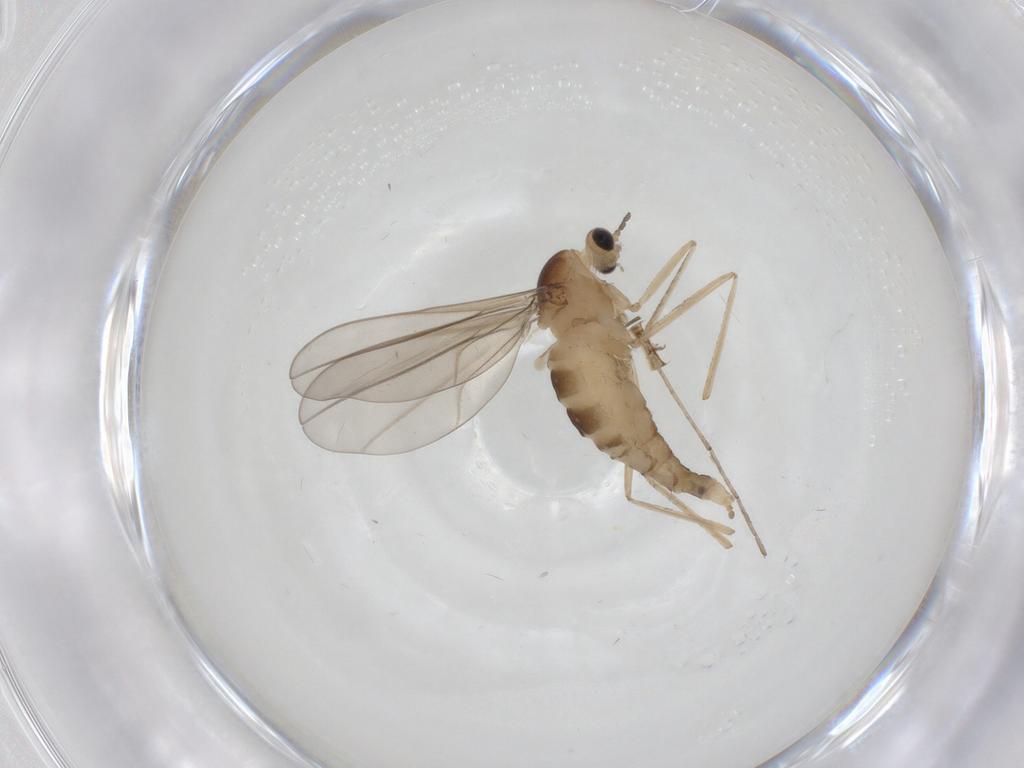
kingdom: Animalia
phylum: Arthropoda
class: Insecta
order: Diptera
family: Cecidomyiidae
